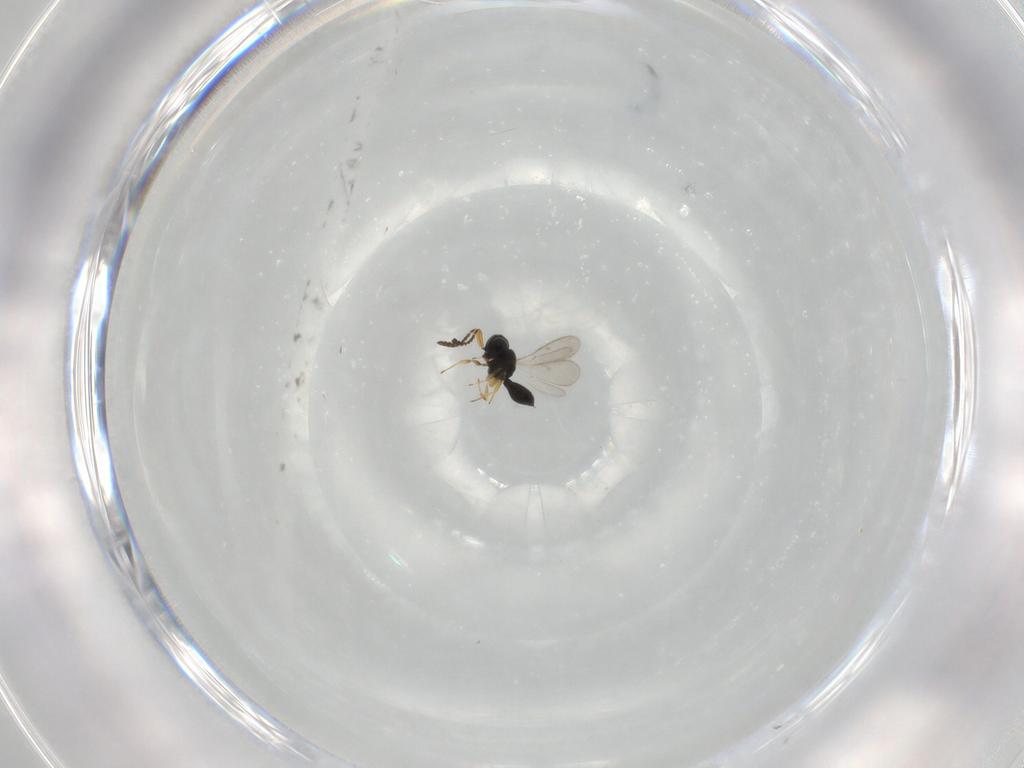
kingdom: Animalia
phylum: Arthropoda
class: Insecta
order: Hymenoptera
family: Scelionidae
